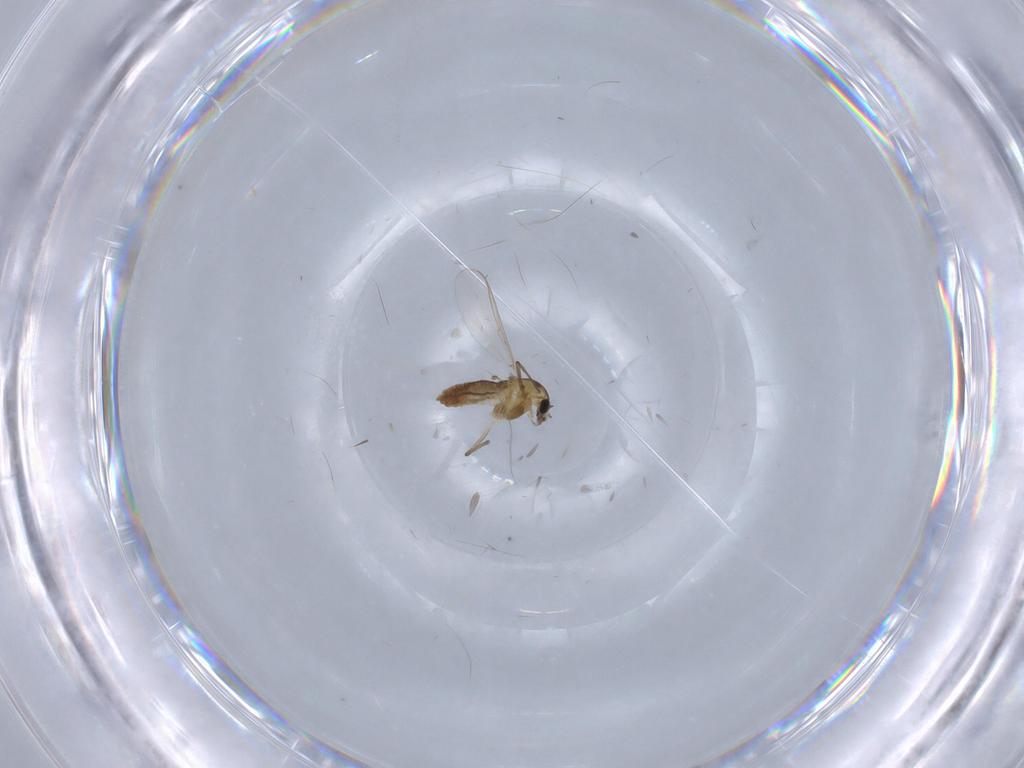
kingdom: Animalia
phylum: Arthropoda
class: Insecta
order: Diptera
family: Chironomidae
